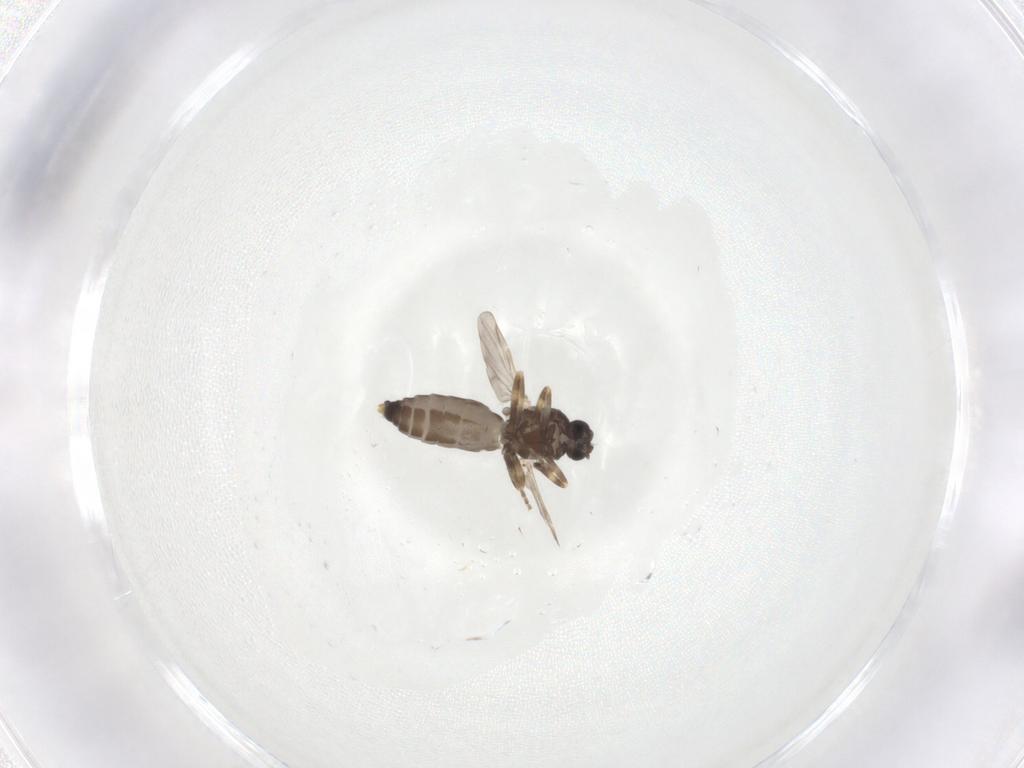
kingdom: Animalia
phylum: Arthropoda
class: Insecta
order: Diptera
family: Ceratopogonidae
